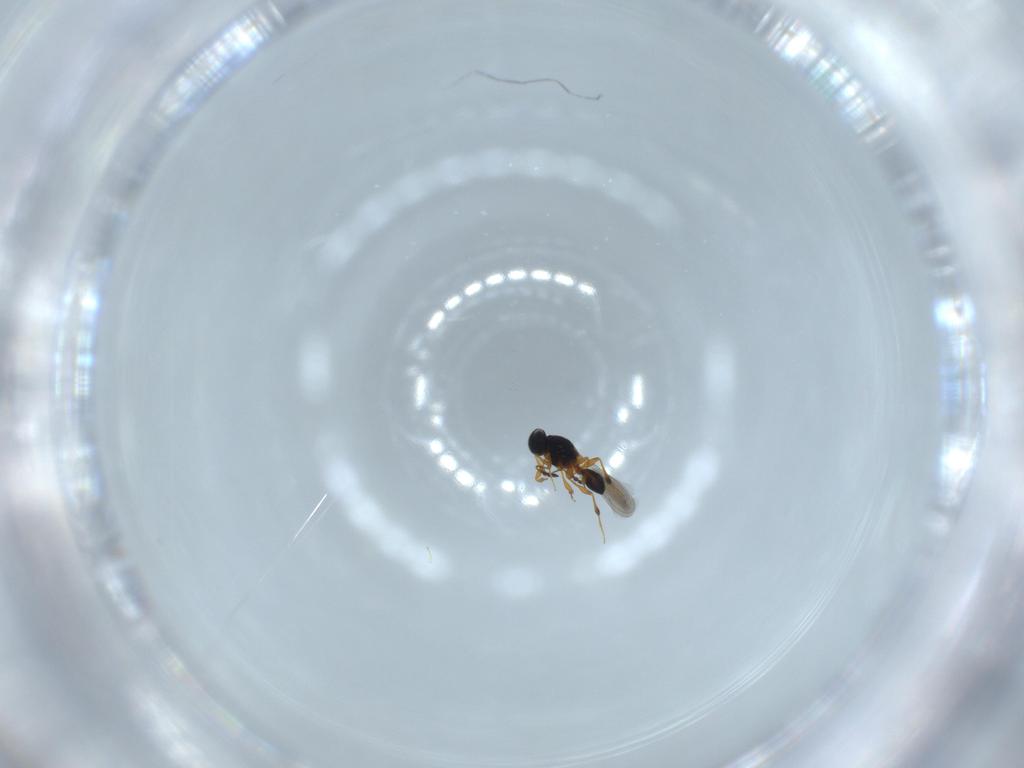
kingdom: Animalia
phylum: Arthropoda
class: Insecta
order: Hymenoptera
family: Platygastridae
